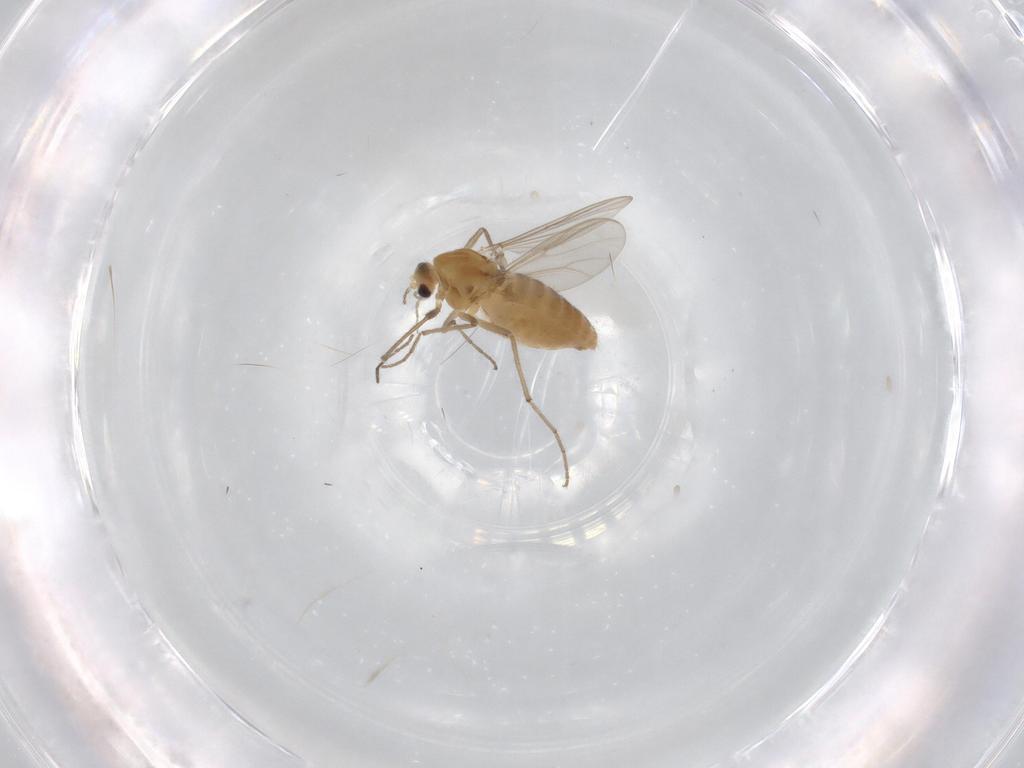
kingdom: Animalia
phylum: Arthropoda
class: Insecta
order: Diptera
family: Chironomidae
